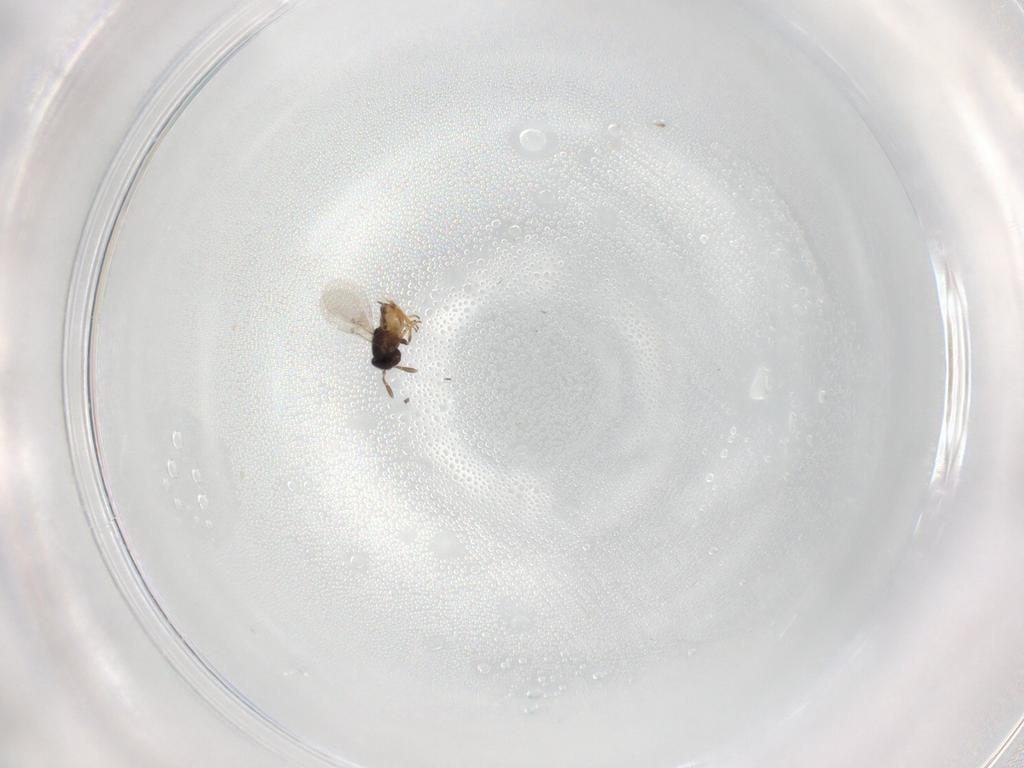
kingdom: Animalia
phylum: Arthropoda
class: Insecta
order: Hymenoptera
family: Encyrtidae
